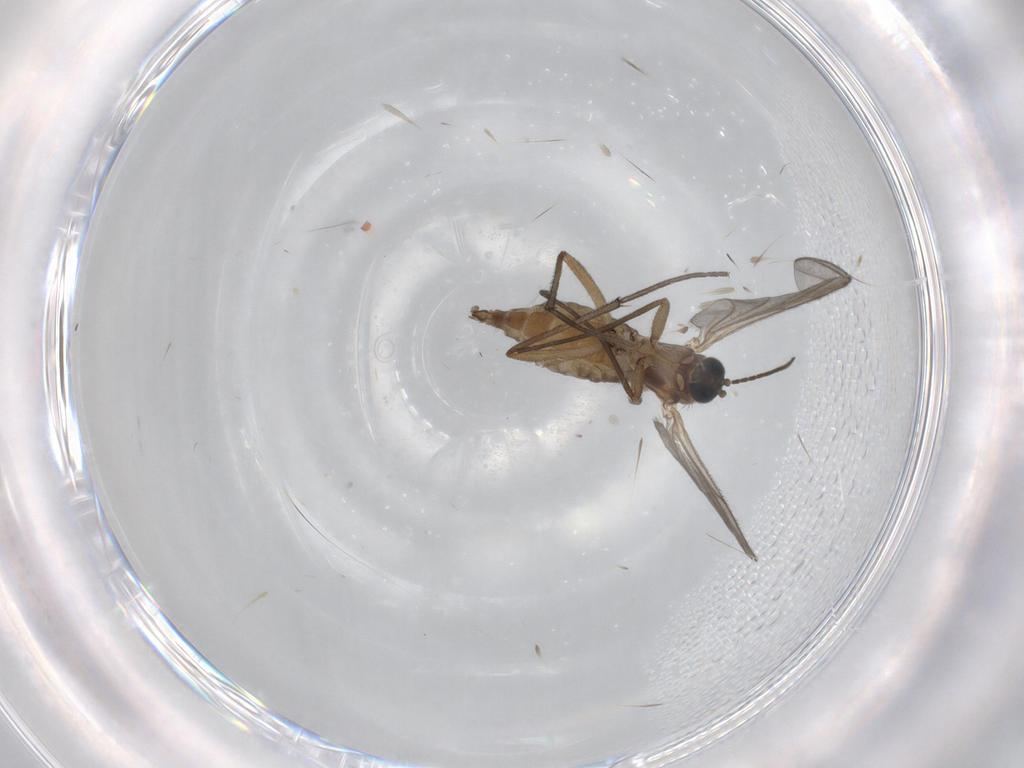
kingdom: Animalia
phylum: Arthropoda
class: Insecta
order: Diptera
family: Sciaridae
